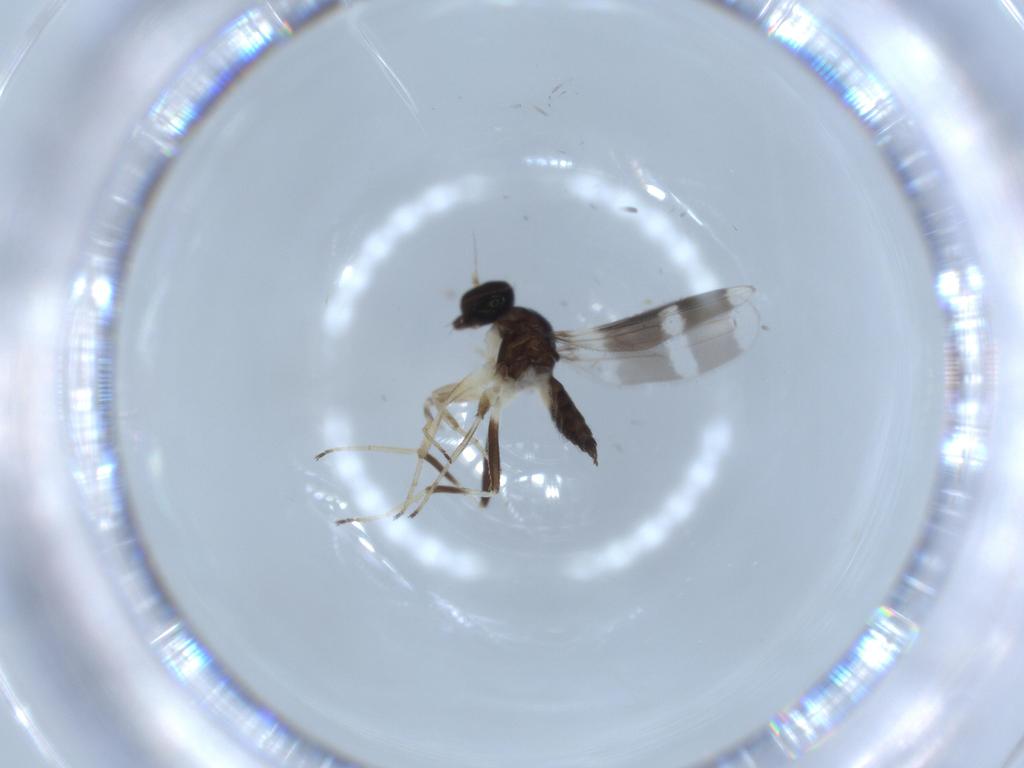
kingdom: Animalia
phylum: Arthropoda
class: Insecta
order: Diptera
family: Hybotidae
